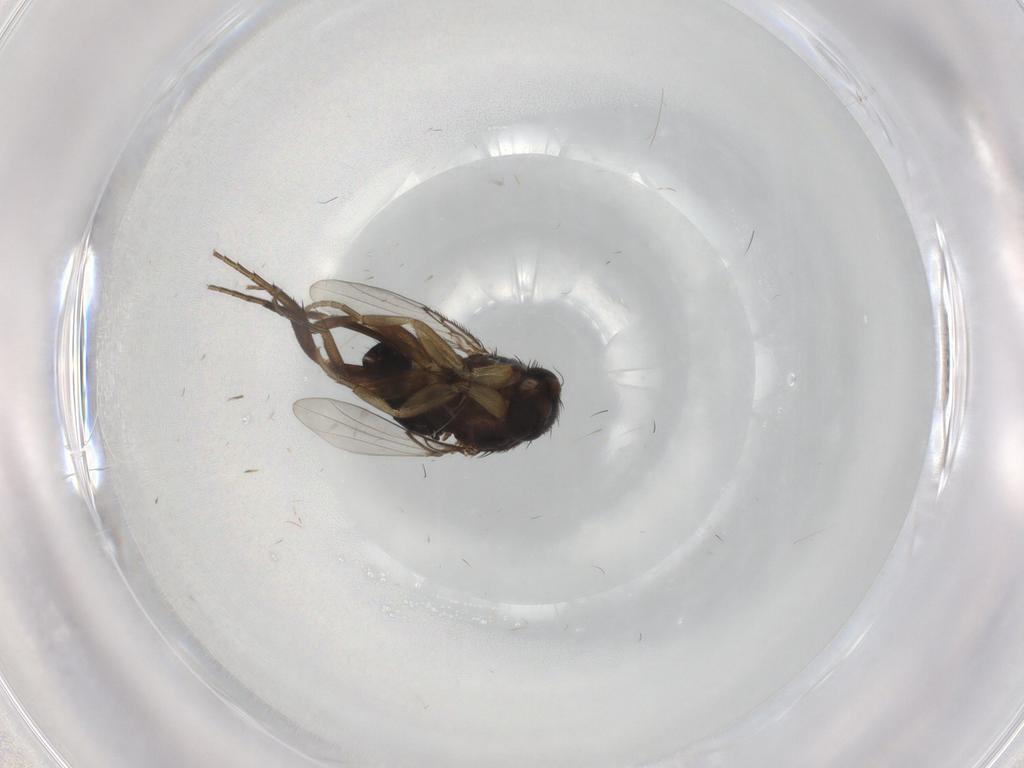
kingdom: Animalia
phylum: Arthropoda
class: Insecta
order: Diptera
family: Phoridae
